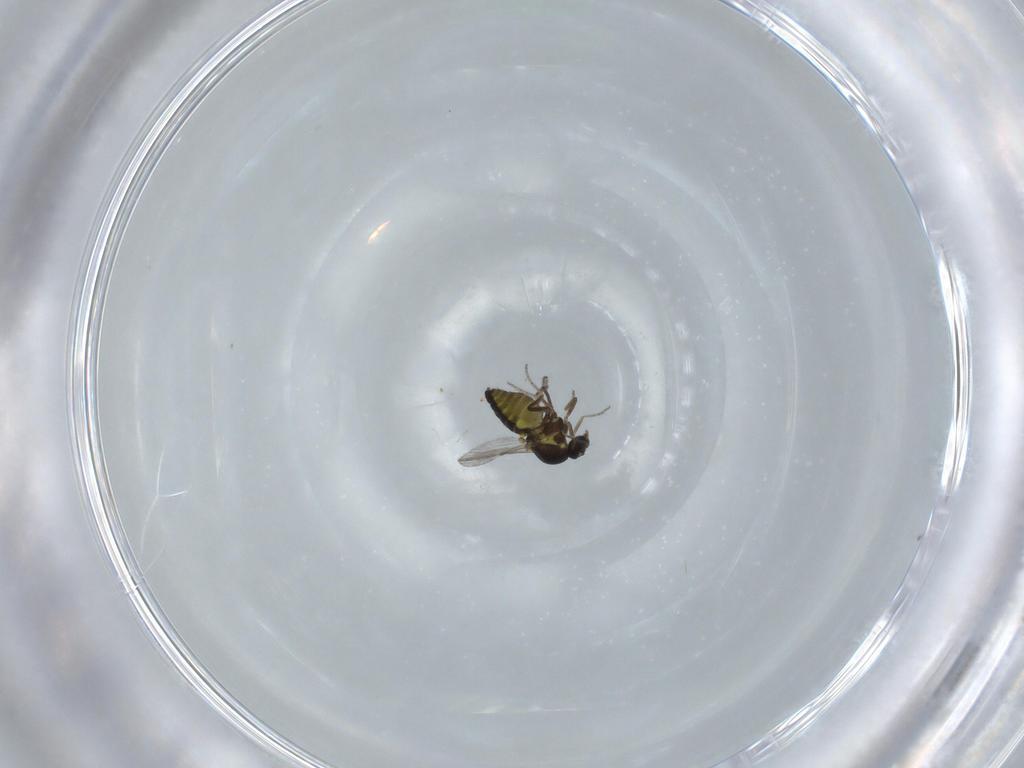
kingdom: Animalia
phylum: Arthropoda
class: Insecta
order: Diptera
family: Ceratopogonidae
